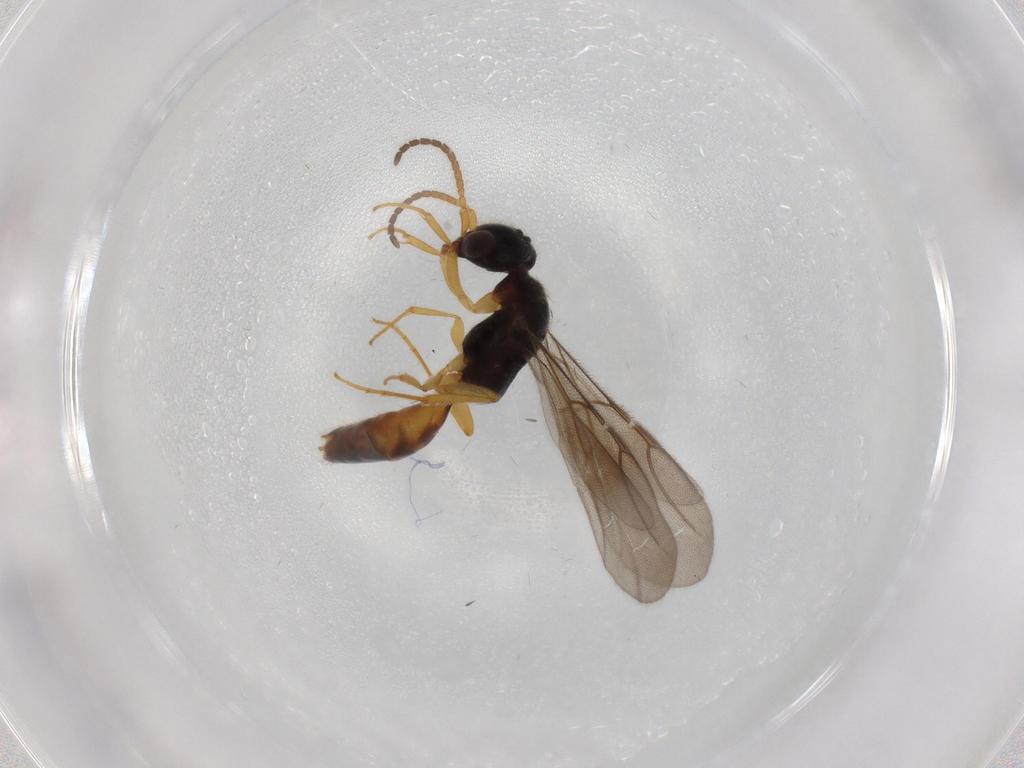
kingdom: Animalia
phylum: Arthropoda
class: Insecta
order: Hymenoptera
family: Bethylidae
